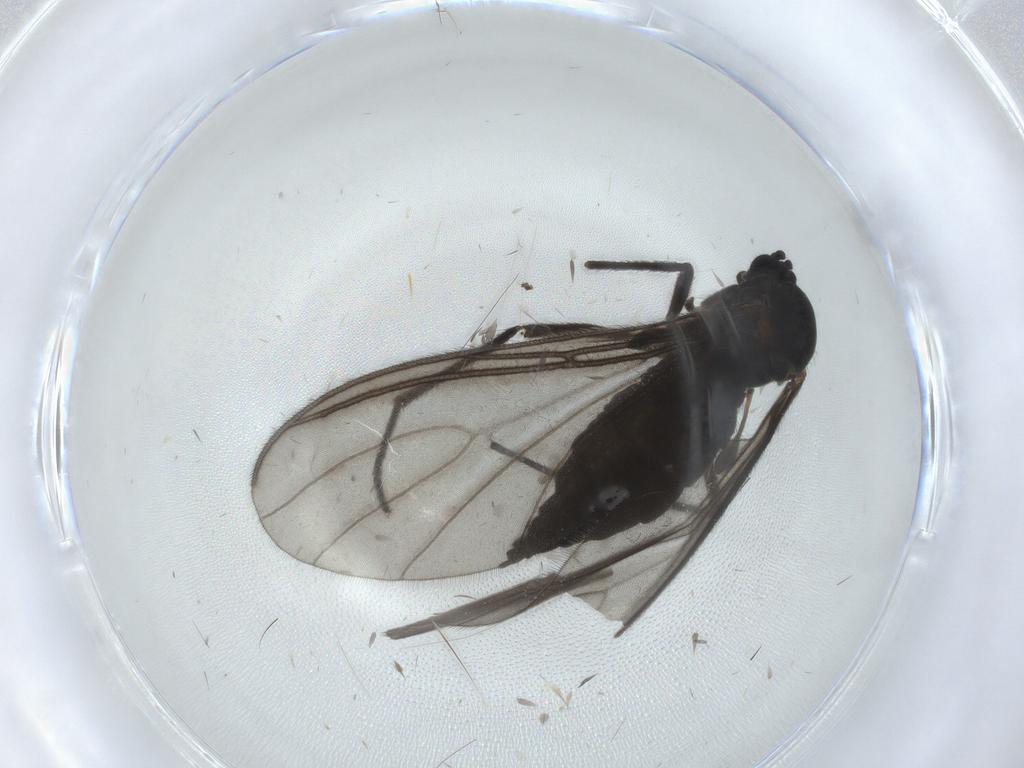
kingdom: Animalia
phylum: Arthropoda
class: Insecta
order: Diptera
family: Sciaridae
